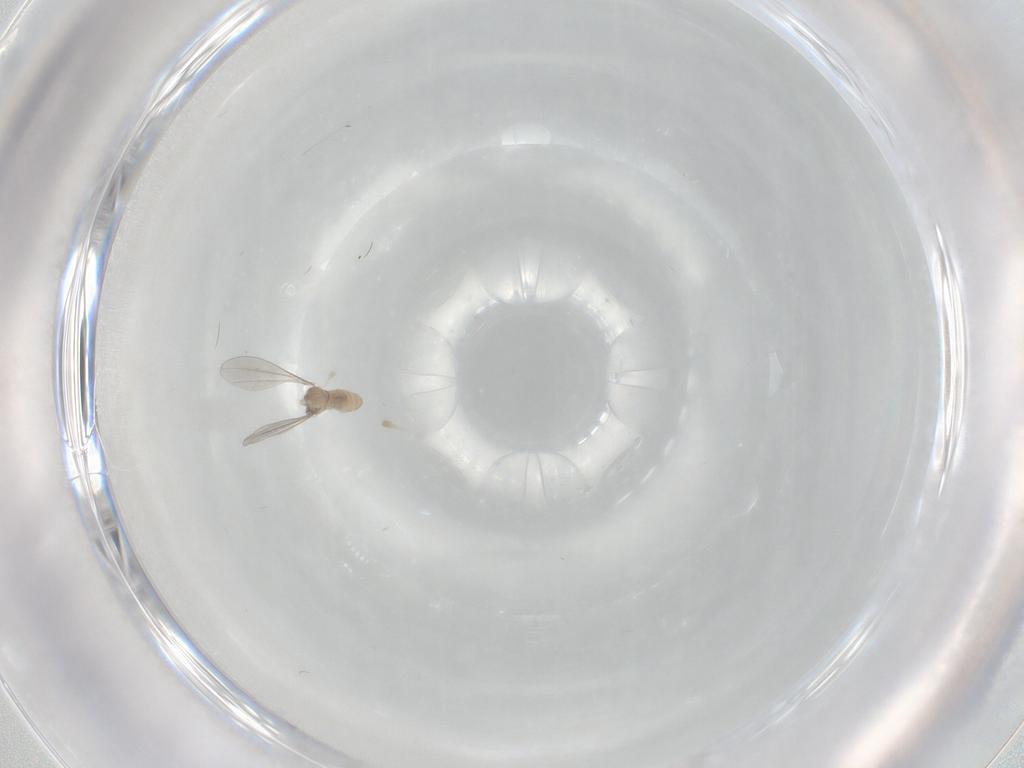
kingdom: Animalia
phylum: Arthropoda
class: Insecta
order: Diptera
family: Cecidomyiidae
